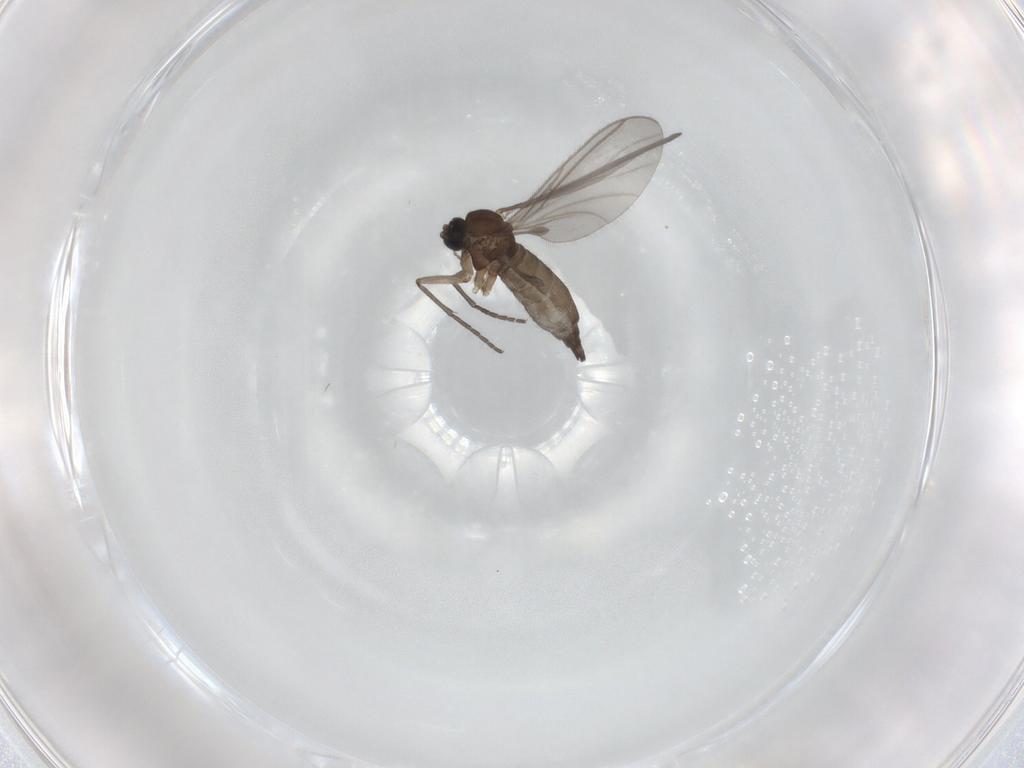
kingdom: Animalia
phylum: Arthropoda
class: Insecta
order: Diptera
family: Sciaridae
